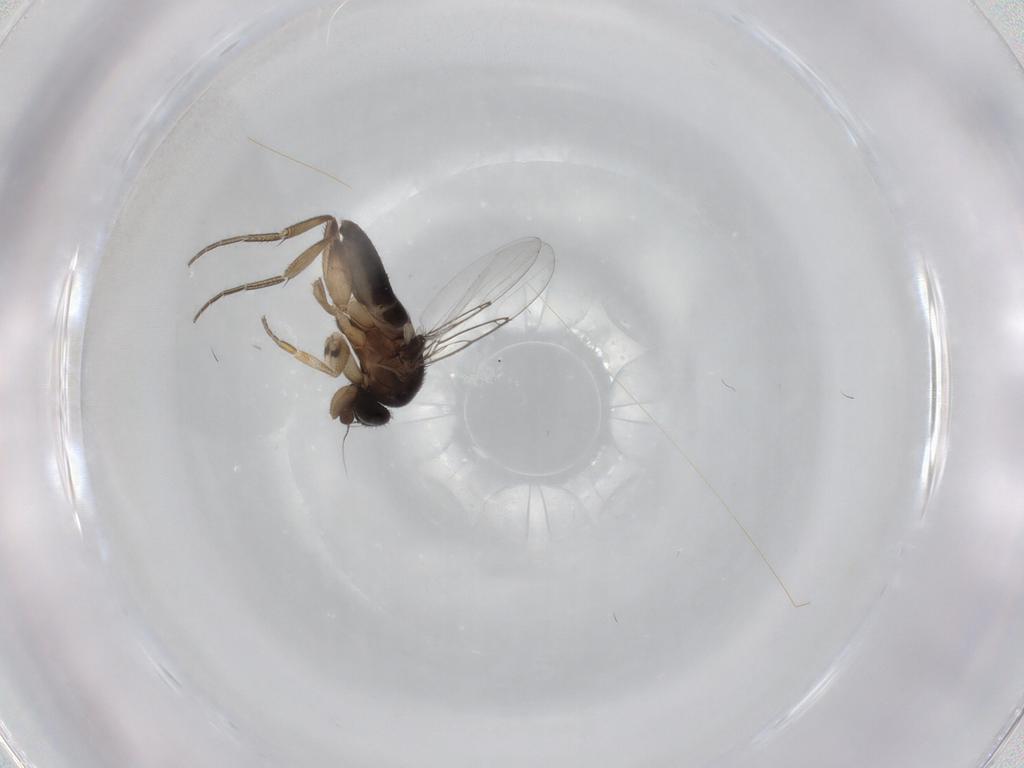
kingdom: Animalia
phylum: Arthropoda
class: Insecta
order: Diptera
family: Phoridae
